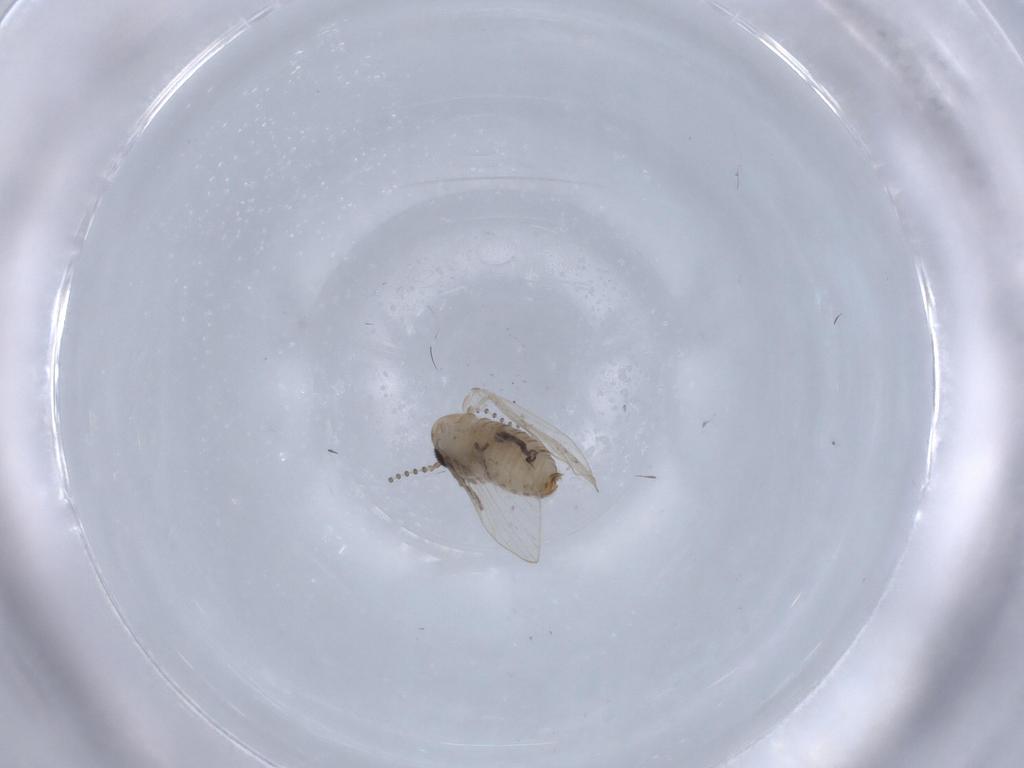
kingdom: Animalia
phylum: Arthropoda
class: Insecta
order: Diptera
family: Psychodidae
